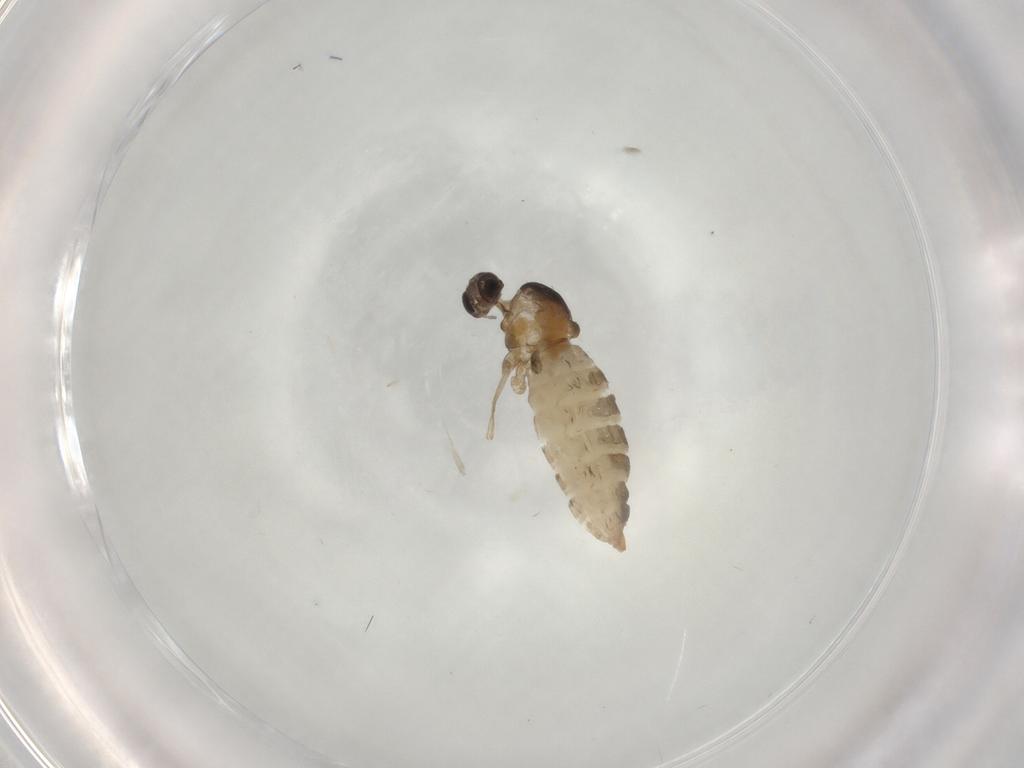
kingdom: Animalia
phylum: Arthropoda
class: Insecta
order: Diptera
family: Cecidomyiidae
